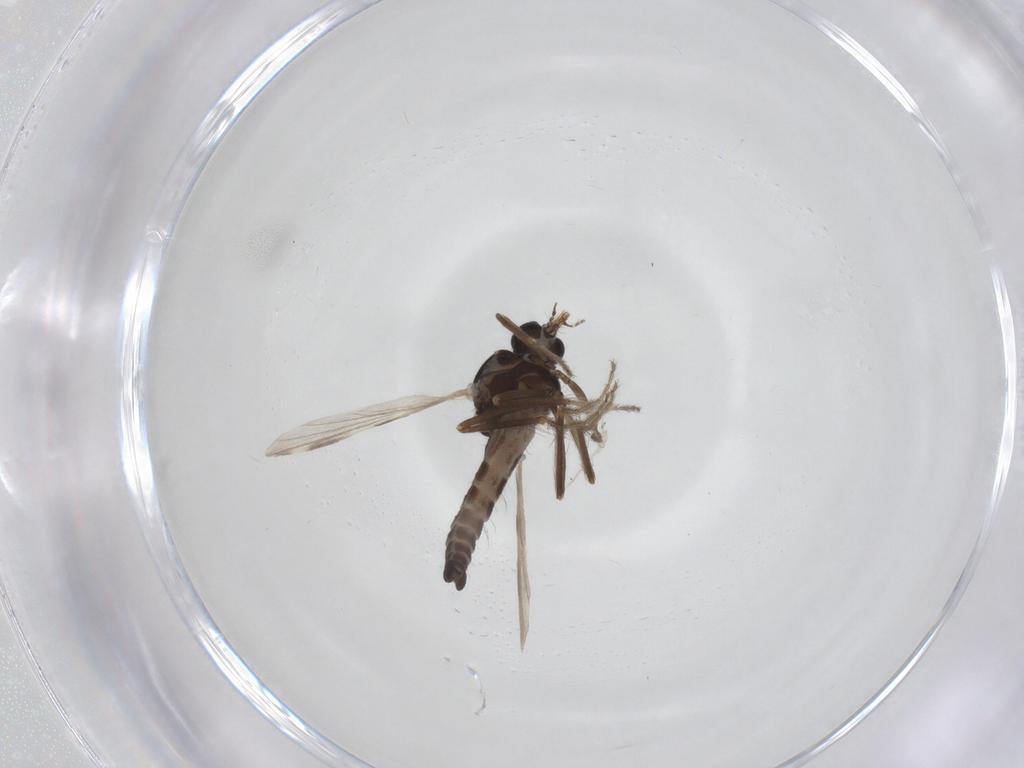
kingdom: Animalia
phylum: Arthropoda
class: Insecta
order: Diptera
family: Ceratopogonidae
